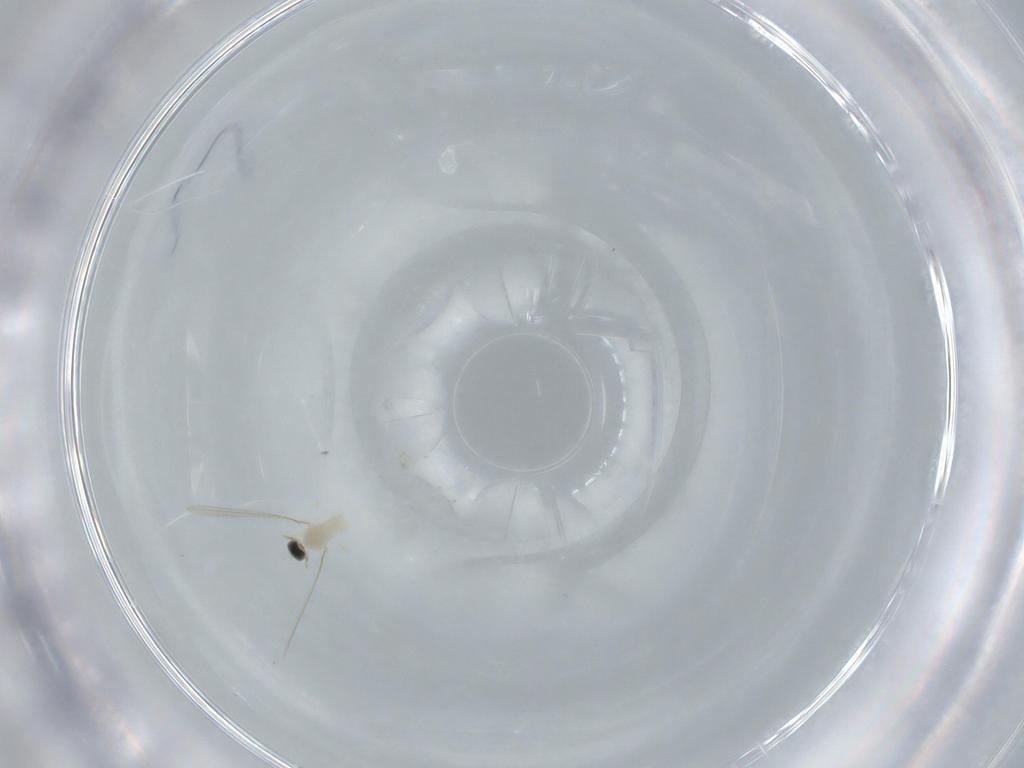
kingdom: Animalia
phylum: Arthropoda
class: Insecta
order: Diptera
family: Cecidomyiidae
